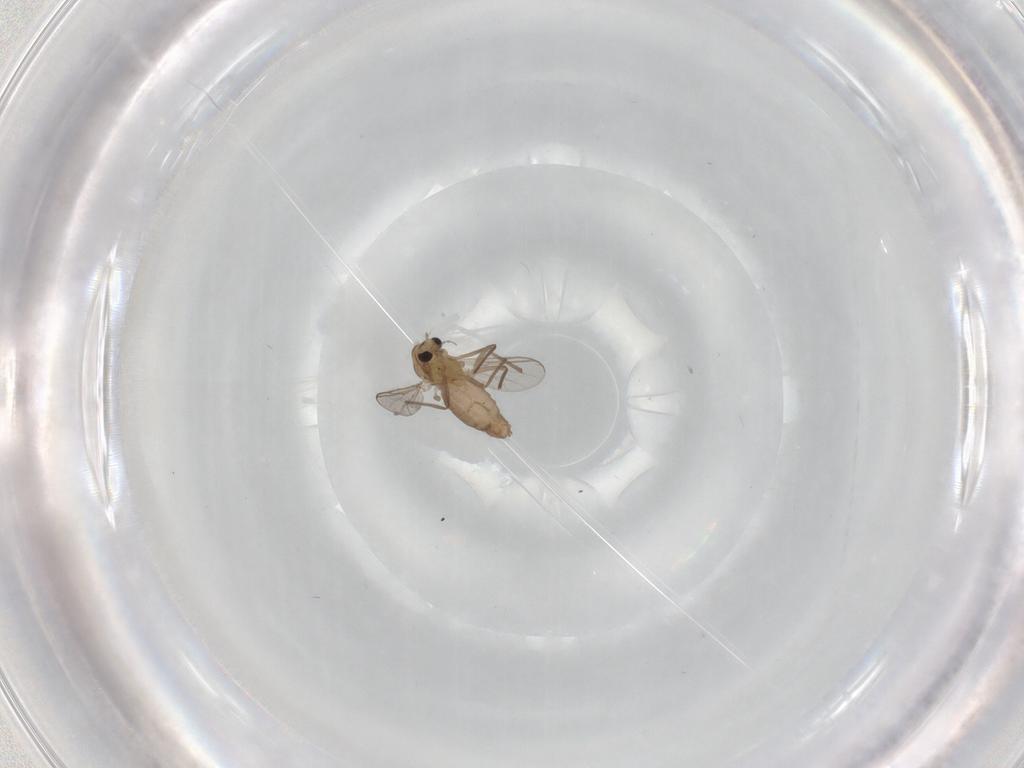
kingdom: Animalia
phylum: Arthropoda
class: Insecta
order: Diptera
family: Chironomidae
